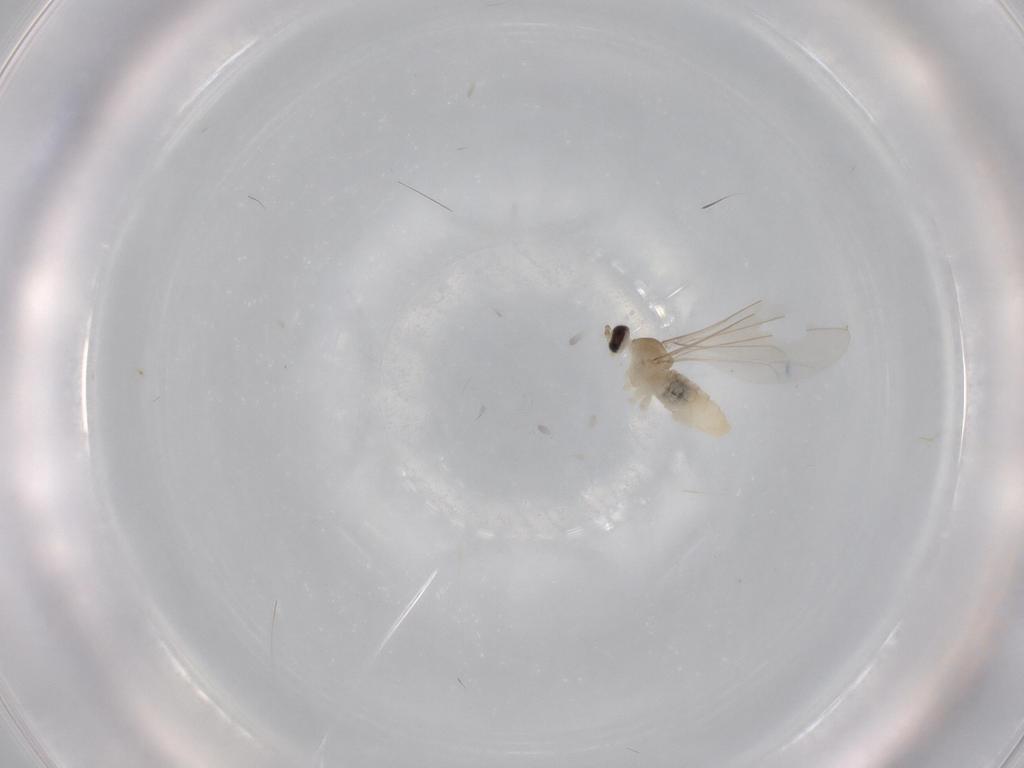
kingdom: Animalia
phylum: Arthropoda
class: Insecta
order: Diptera
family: Cecidomyiidae
